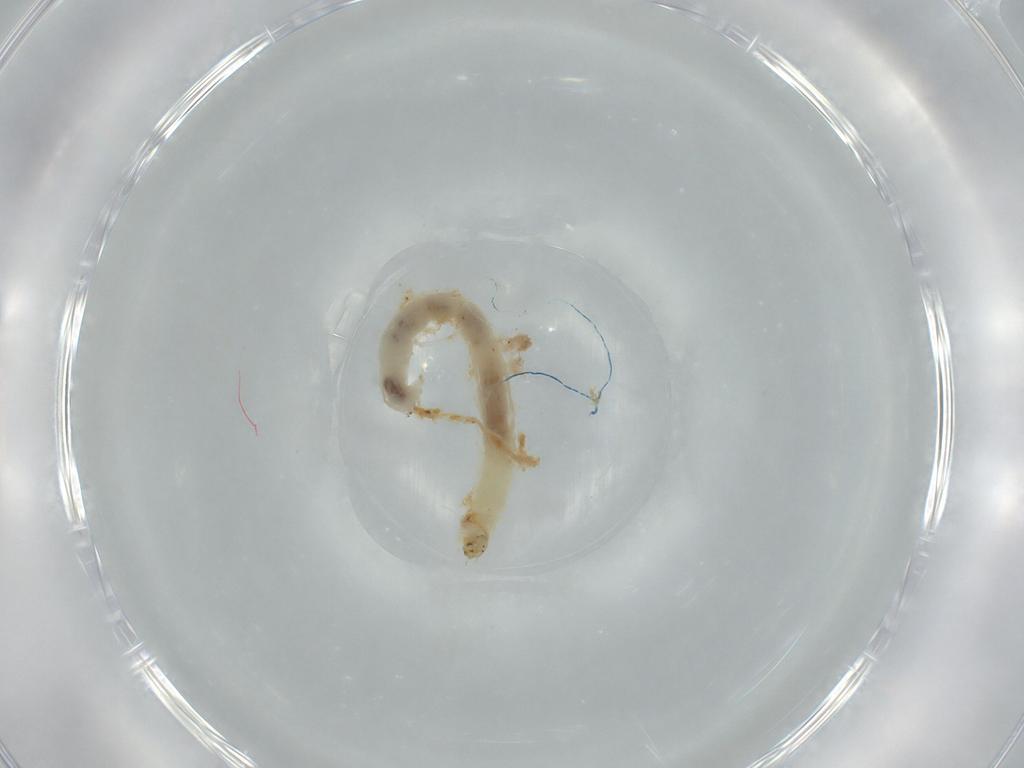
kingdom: Animalia
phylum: Arthropoda
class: Insecta
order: Diptera
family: Chironomidae
